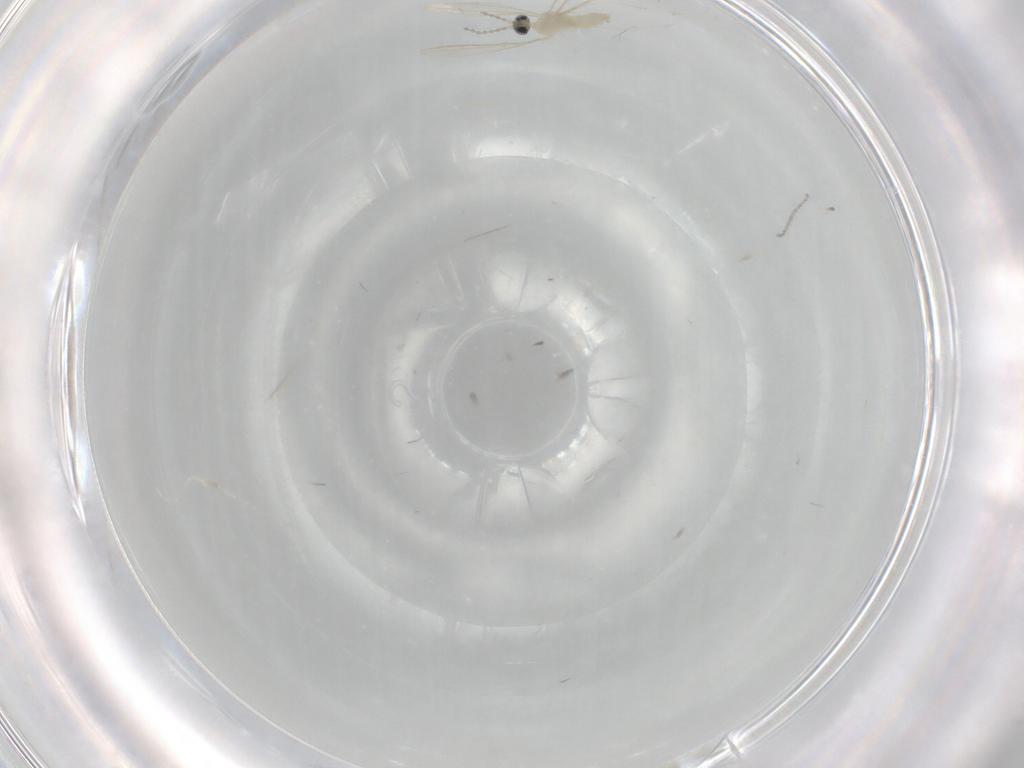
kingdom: Animalia
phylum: Arthropoda
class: Insecta
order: Diptera
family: Cecidomyiidae
